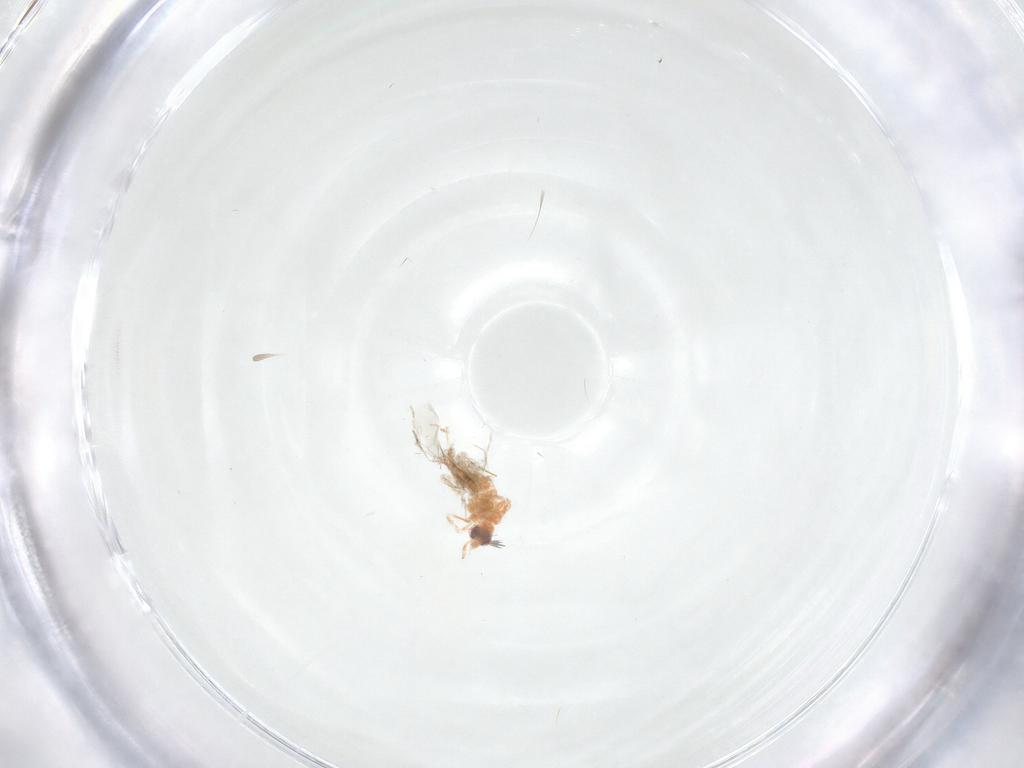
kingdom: Animalia
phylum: Arthropoda
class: Insecta
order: Hemiptera
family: Aleyrodidae
